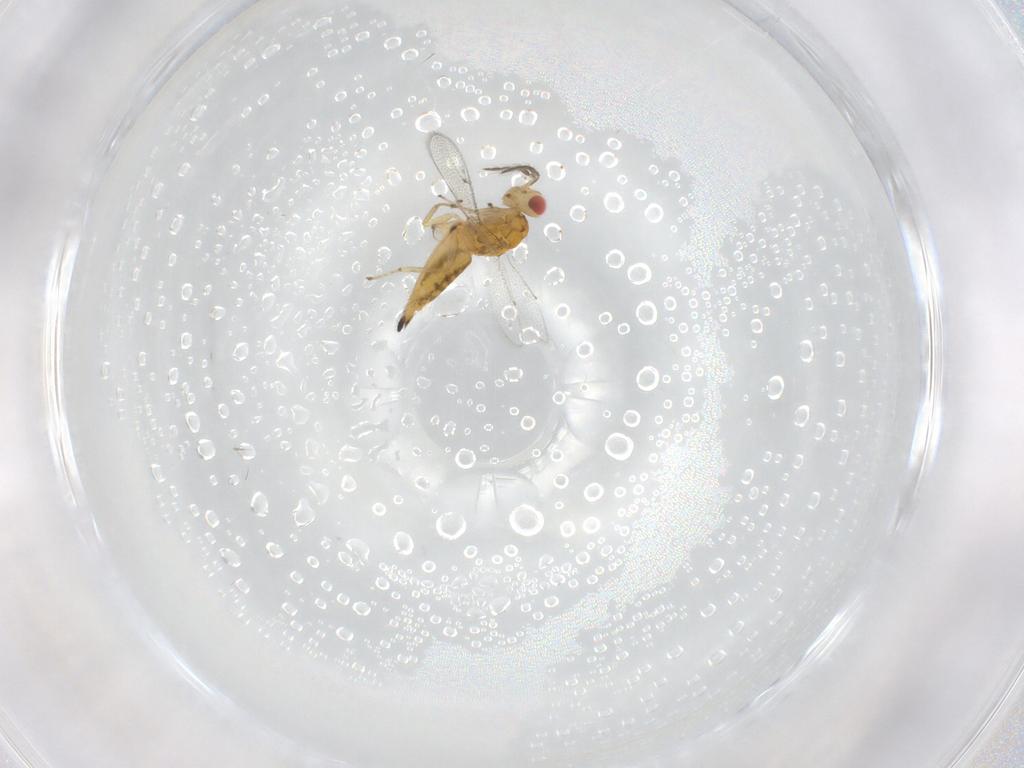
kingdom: Animalia
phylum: Arthropoda
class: Insecta
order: Hymenoptera
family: Eulophidae
